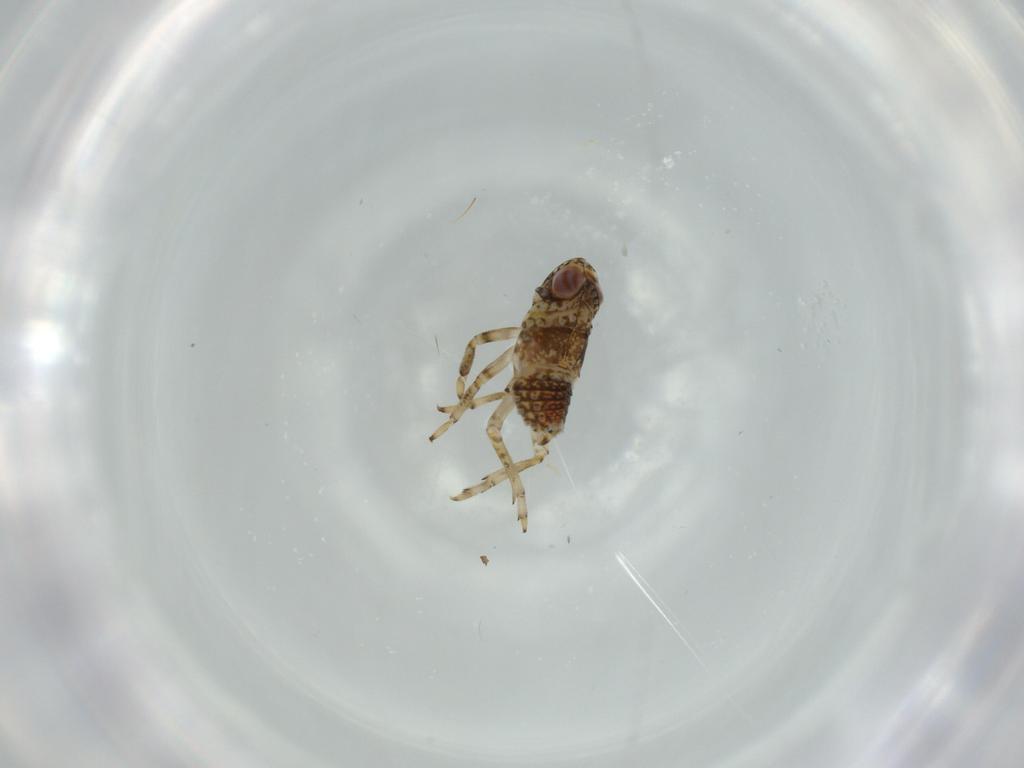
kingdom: Animalia
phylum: Arthropoda
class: Insecta
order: Hemiptera
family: Issidae
